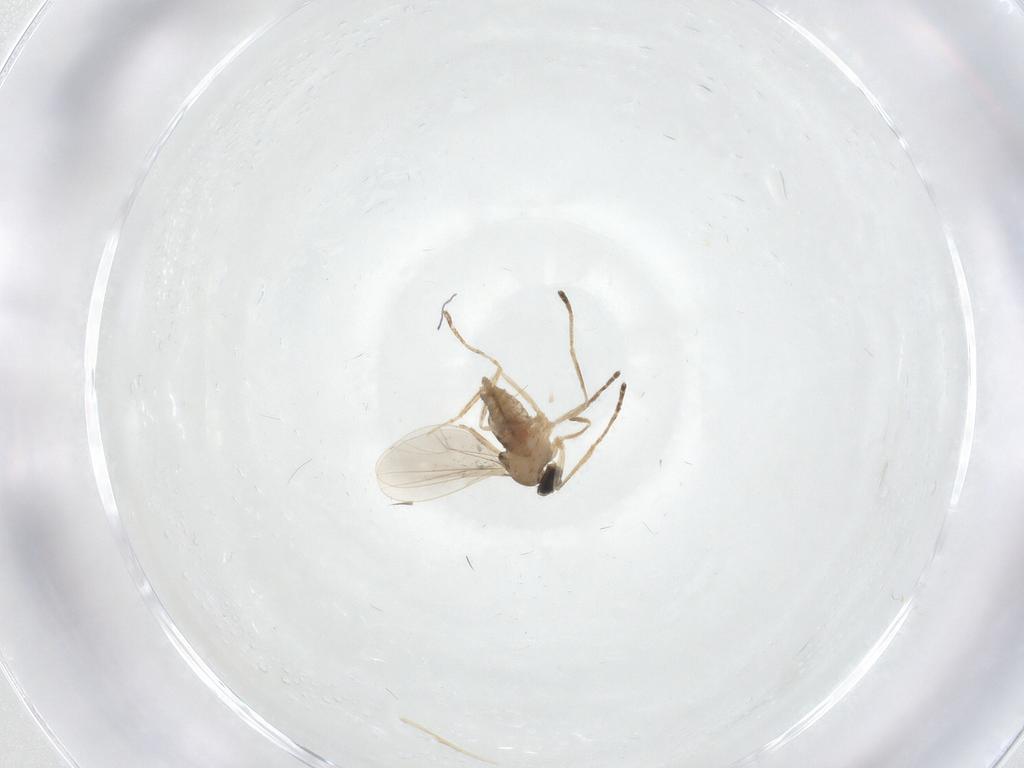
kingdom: Animalia
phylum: Arthropoda
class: Insecta
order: Diptera
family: Cecidomyiidae
